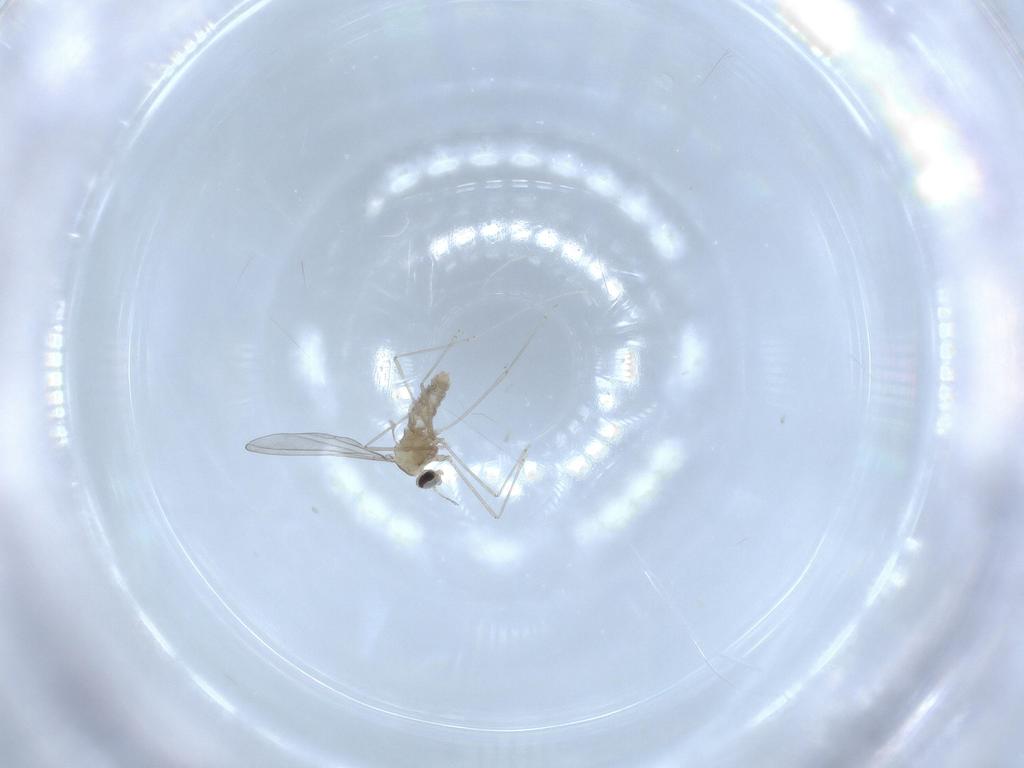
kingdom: Animalia
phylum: Arthropoda
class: Insecta
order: Diptera
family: Cecidomyiidae
